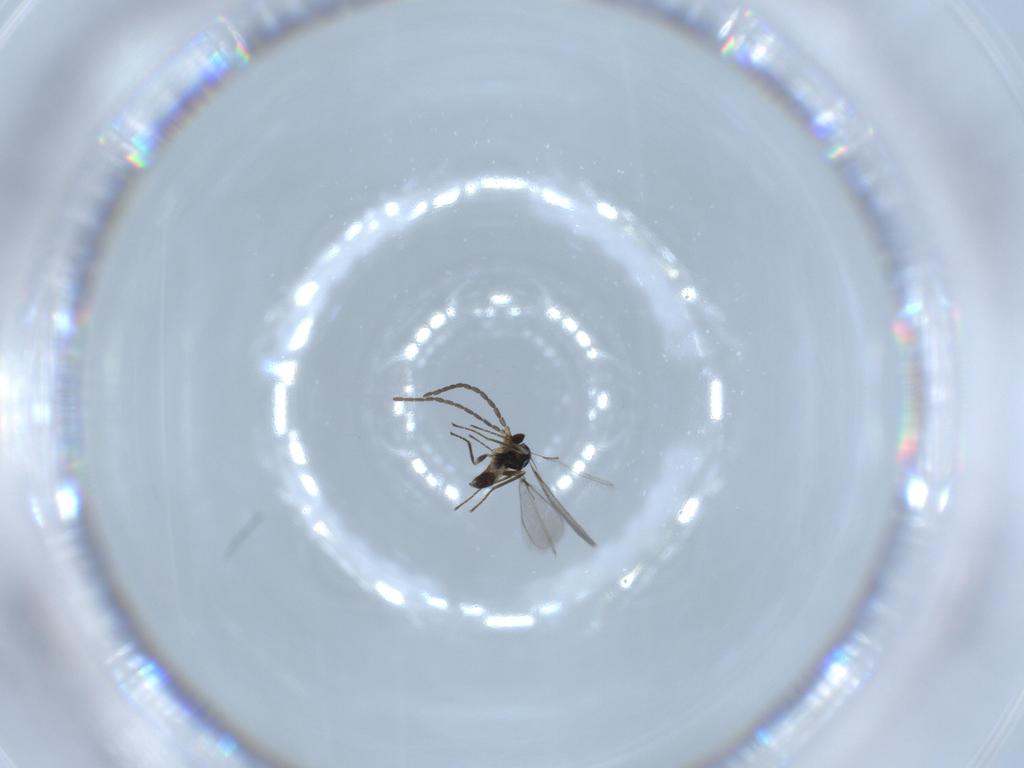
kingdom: Animalia
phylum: Arthropoda
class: Insecta
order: Hymenoptera
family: Mymaridae
